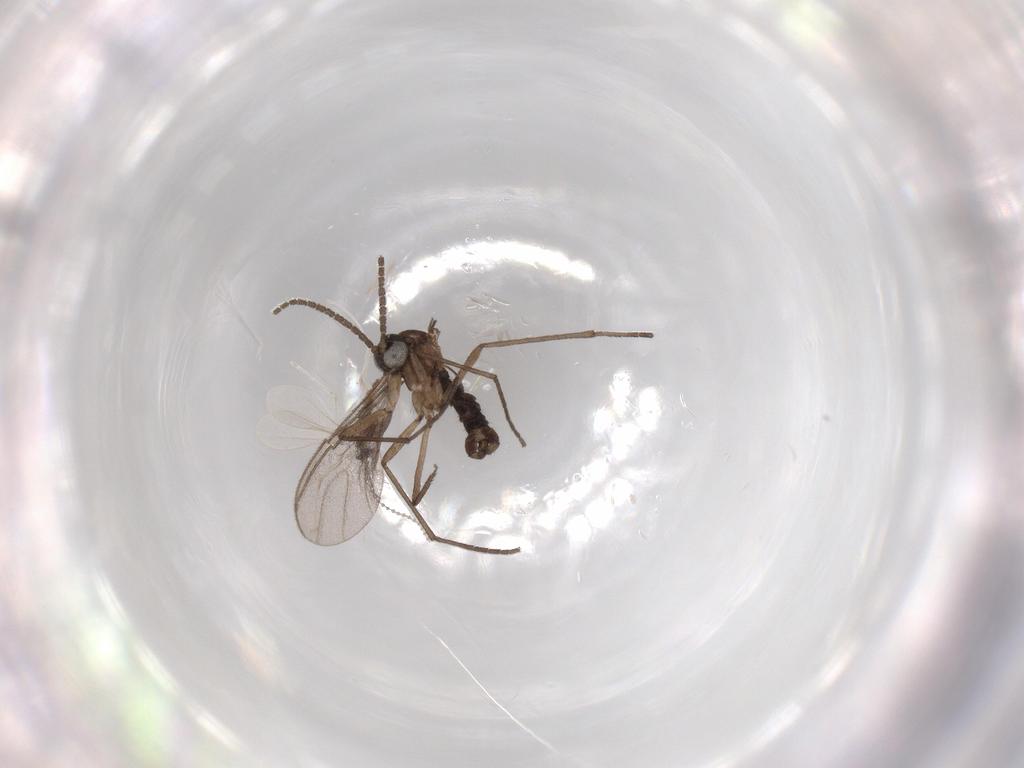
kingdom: Animalia
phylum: Arthropoda
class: Insecta
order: Diptera
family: Sciaridae
